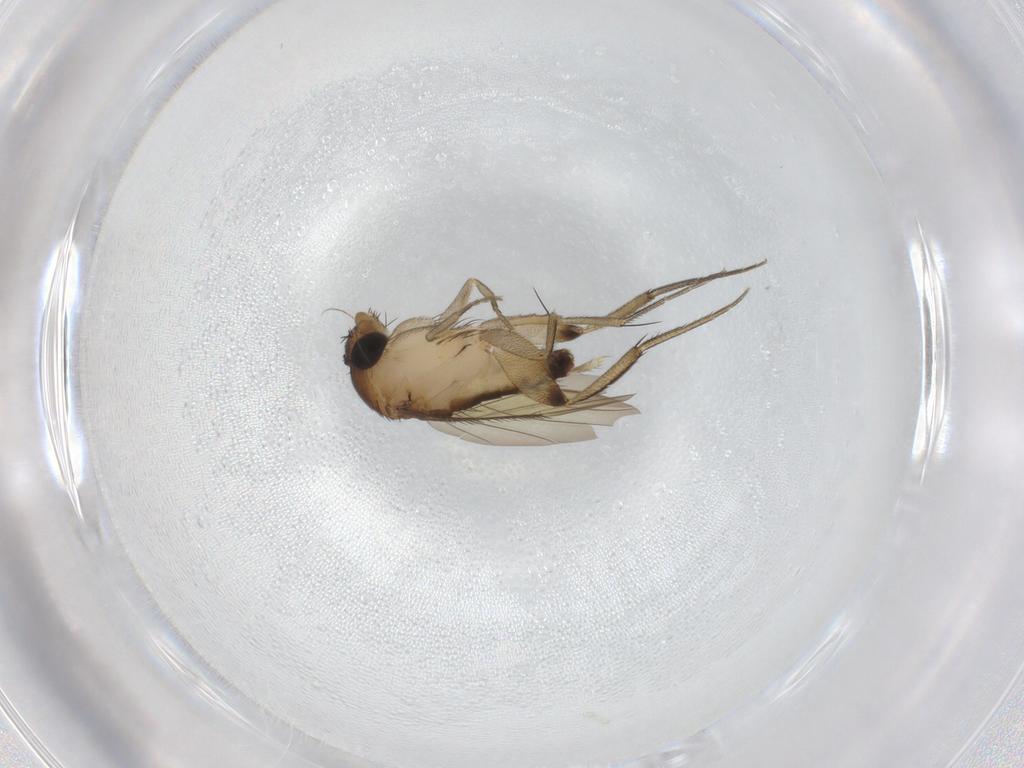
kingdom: Animalia
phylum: Arthropoda
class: Insecta
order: Diptera
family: Phoridae
